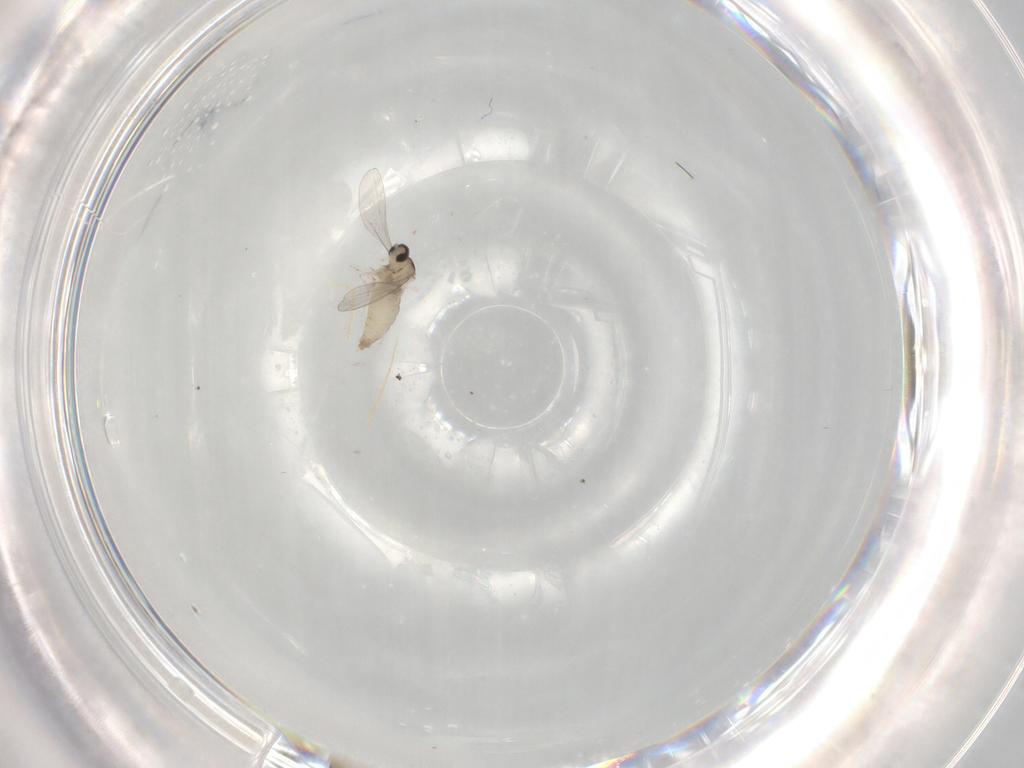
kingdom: Animalia
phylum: Arthropoda
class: Insecta
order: Diptera
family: Cecidomyiidae
